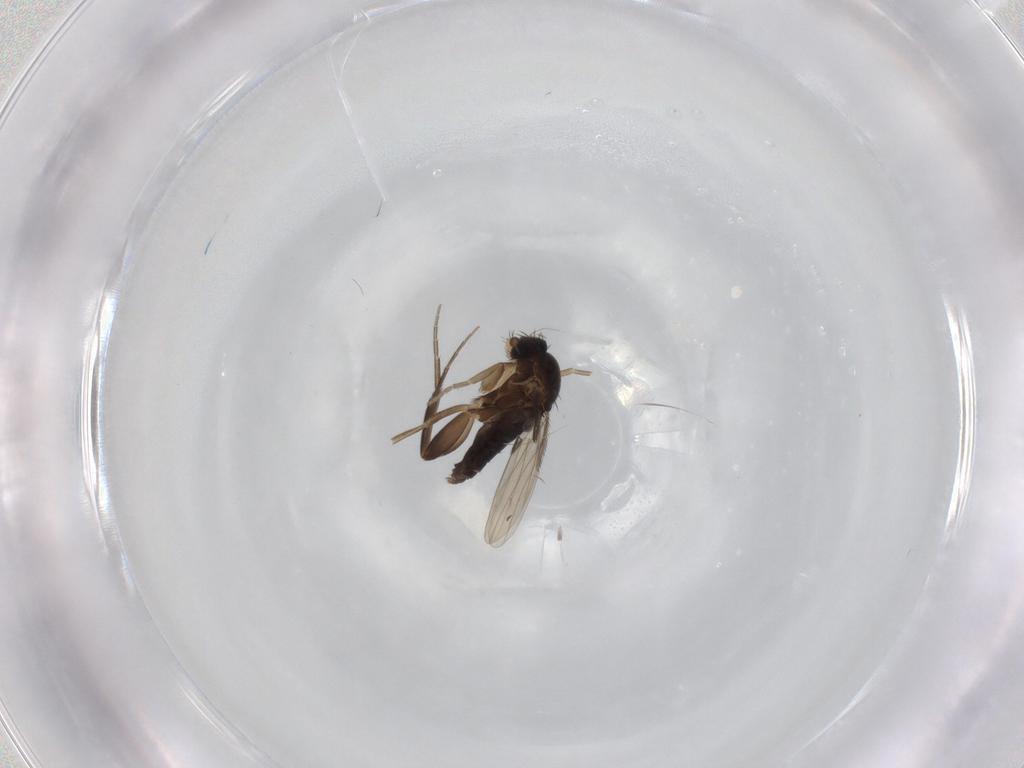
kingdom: Animalia
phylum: Arthropoda
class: Insecta
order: Diptera
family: Phoridae
